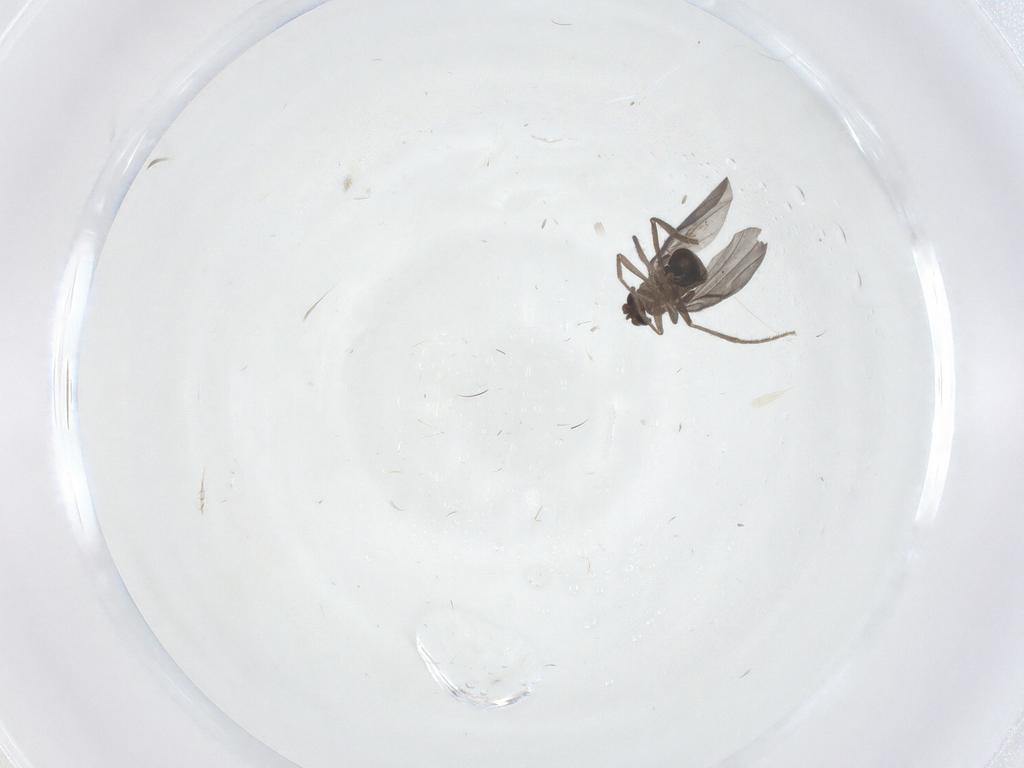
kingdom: Animalia
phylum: Arthropoda
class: Insecta
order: Diptera
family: Phoridae
